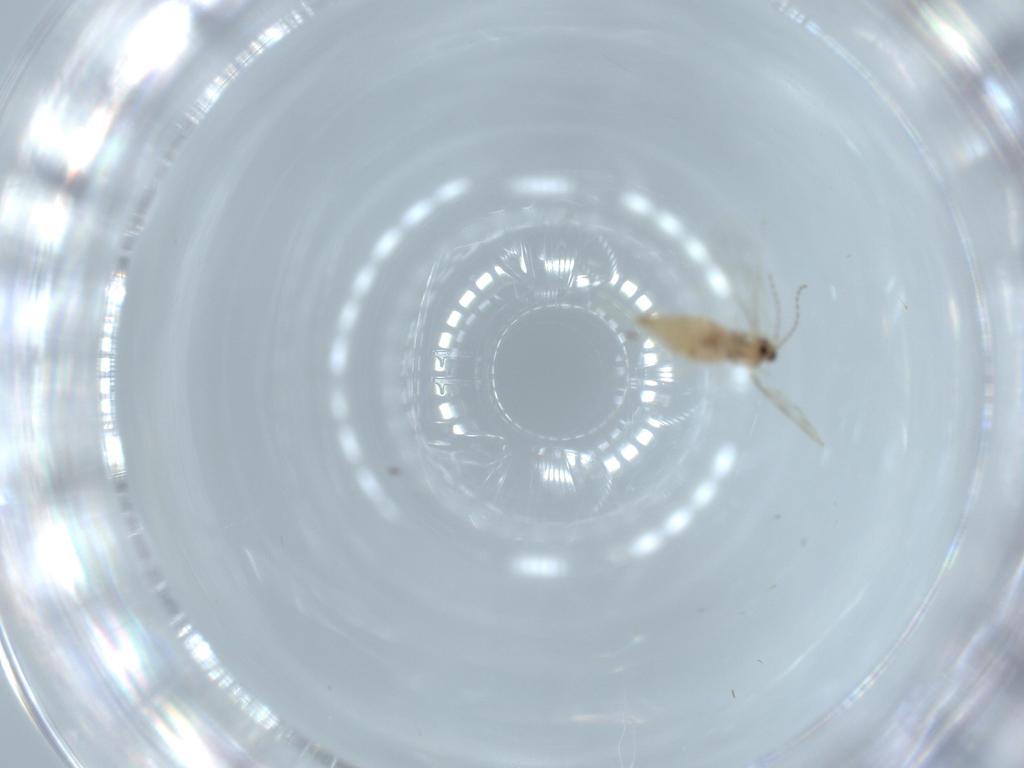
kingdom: Animalia
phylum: Arthropoda
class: Insecta
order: Diptera
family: Cecidomyiidae
